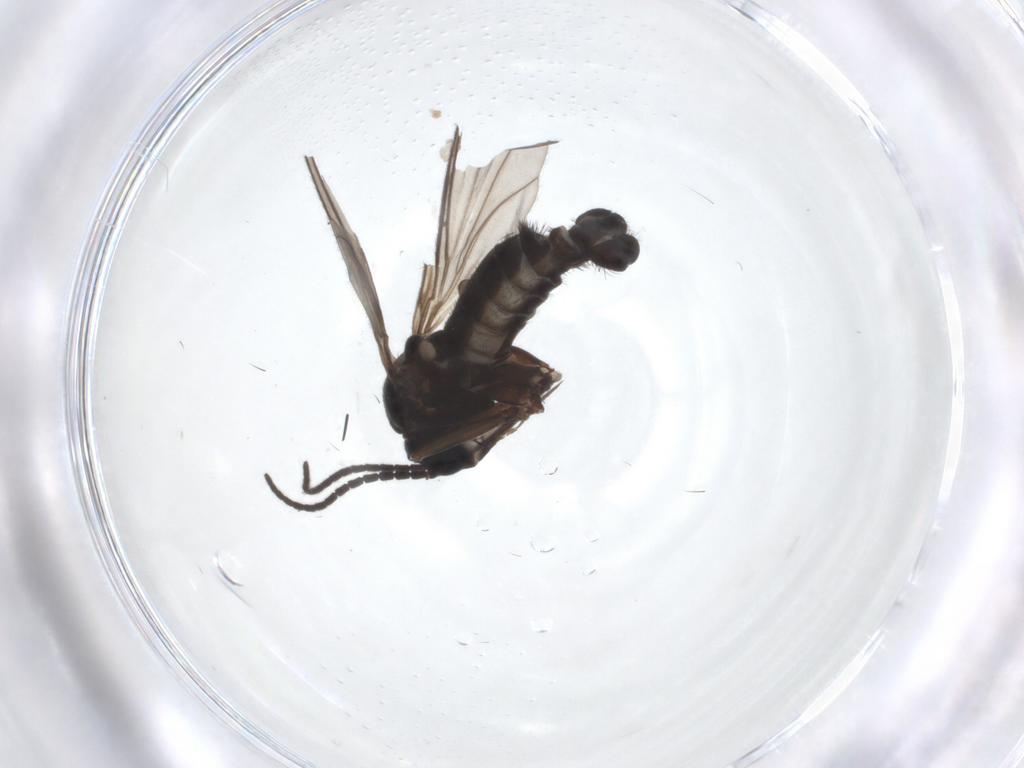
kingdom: Animalia
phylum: Arthropoda
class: Insecta
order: Diptera
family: Sciaridae
